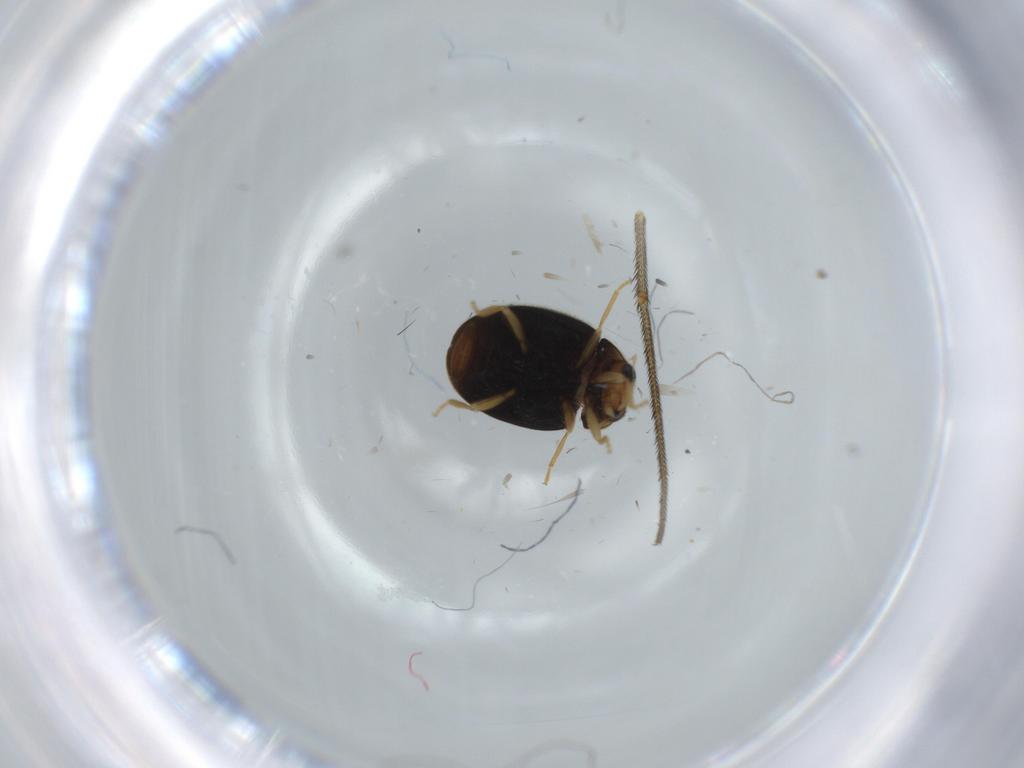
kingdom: Animalia
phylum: Arthropoda
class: Insecta
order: Coleoptera
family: Coccinellidae
